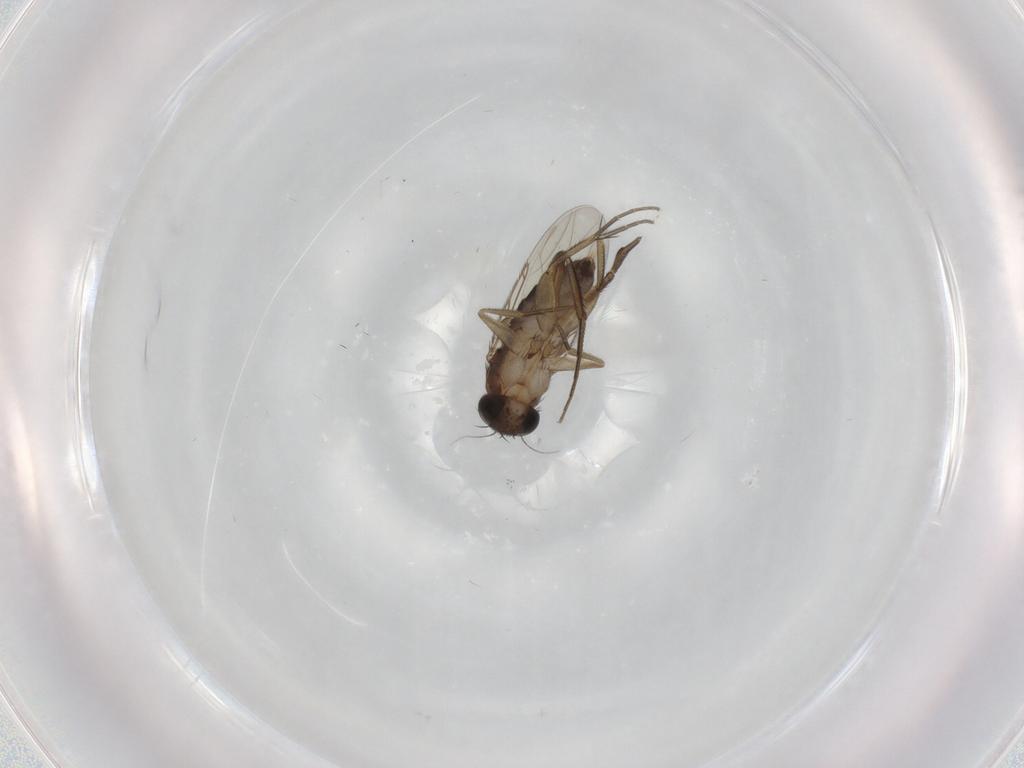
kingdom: Animalia
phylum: Arthropoda
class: Insecta
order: Diptera
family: Phoridae
